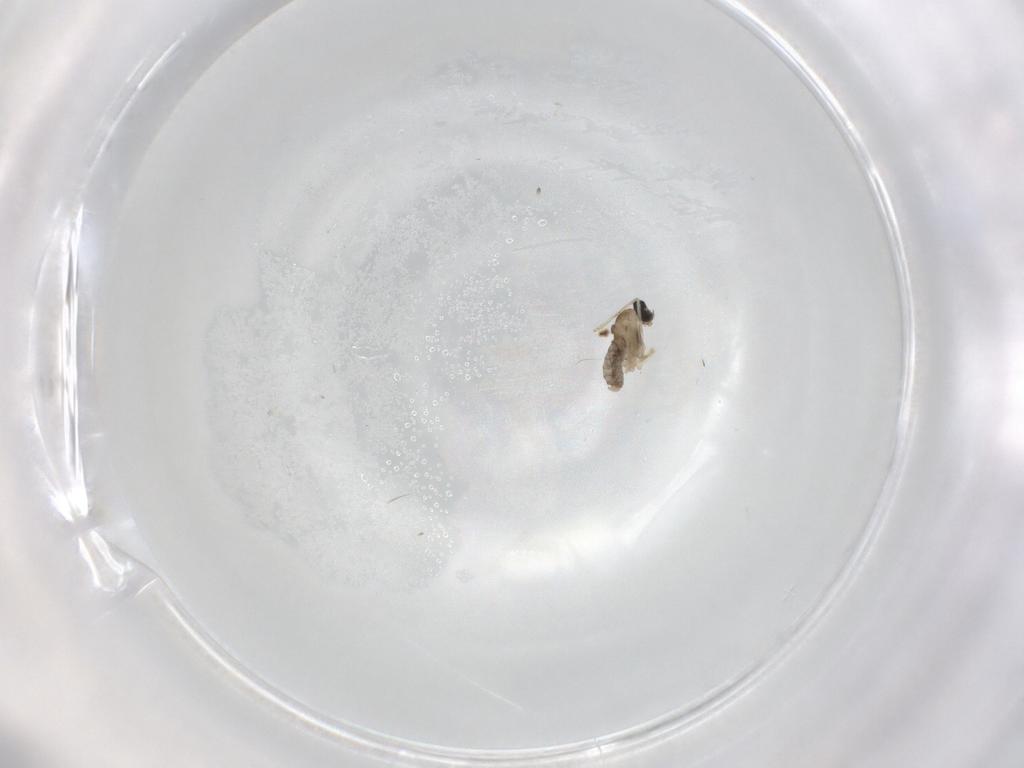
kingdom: Animalia
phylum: Arthropoda
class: Insecta
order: Diptera
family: Cecidomyiidae
